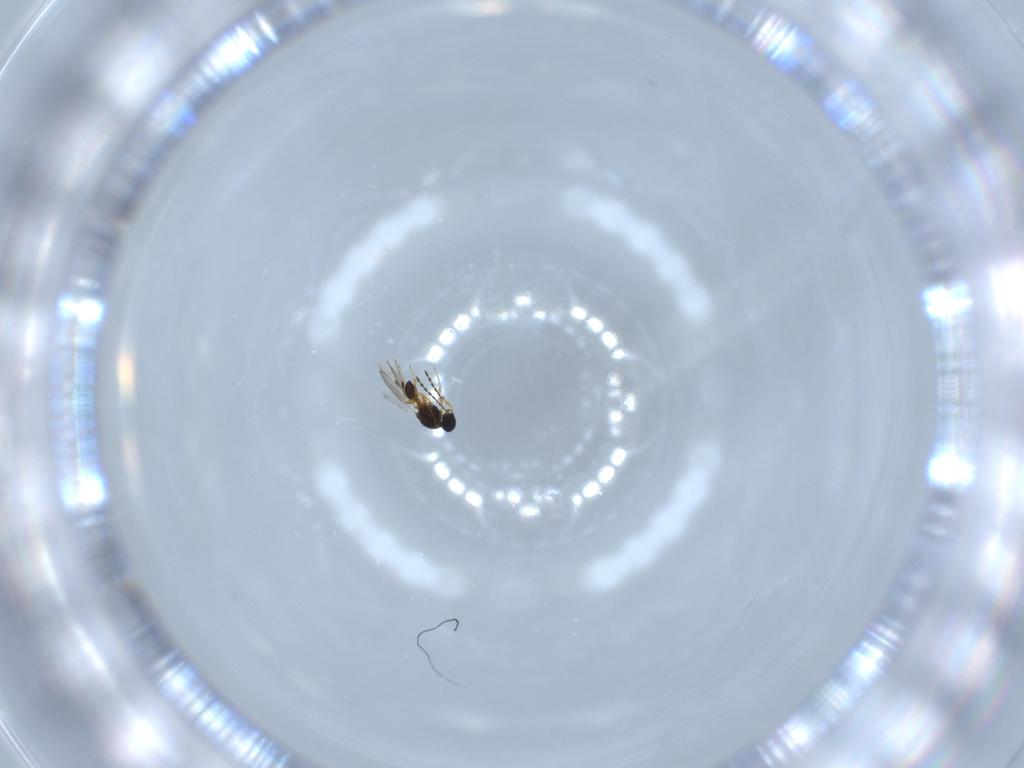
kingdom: Animalia
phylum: Arthropoda
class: Insecta
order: Hymenoptera
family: Platygastridae
